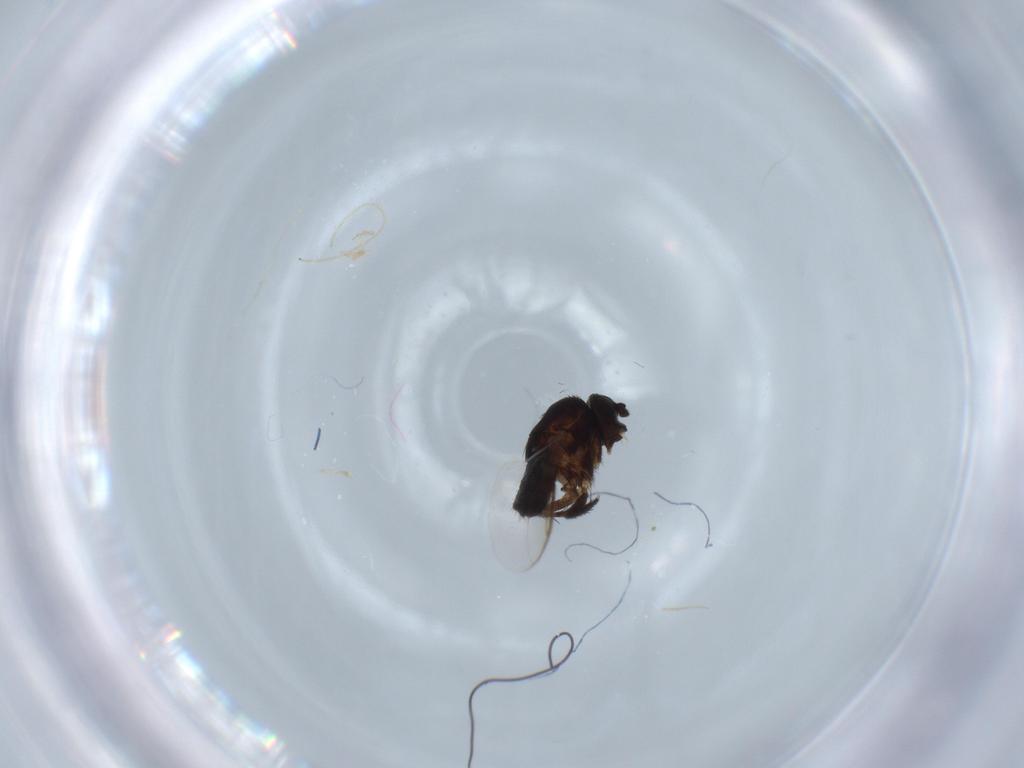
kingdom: Animalia
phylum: Arthropoda
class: Insecta
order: Diptera
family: Sphaeroceridae
